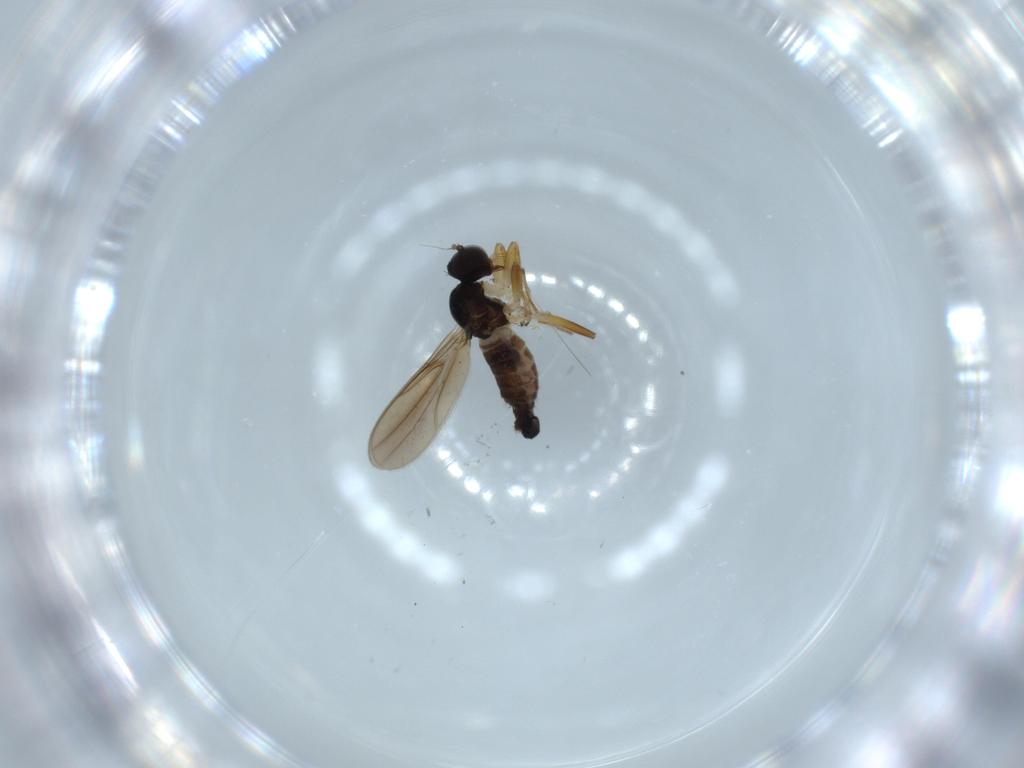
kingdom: Animalia
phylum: Arthropoda
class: Insecta
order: Diptera
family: Hybotidae
